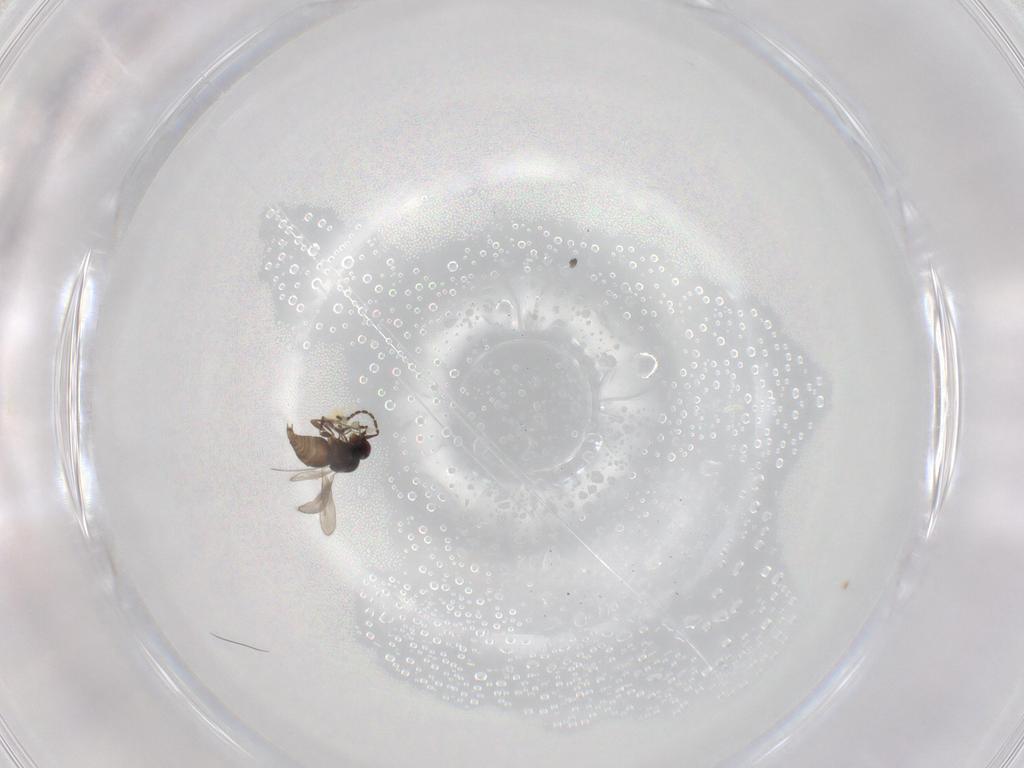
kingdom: Animalia
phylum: Arthropoda
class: Insecta
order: Hymenoptera
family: Ceraphronidae
